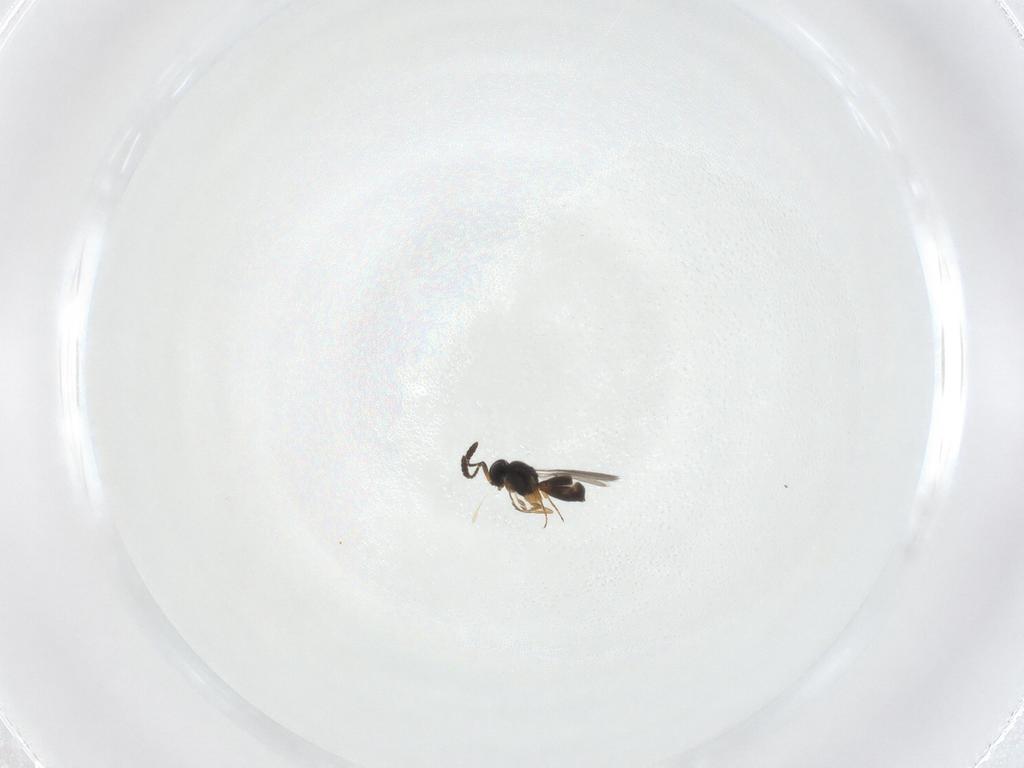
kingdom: Animalia
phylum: Arthropoda
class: Insecta
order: Hymenoptera
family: Scelionidae
